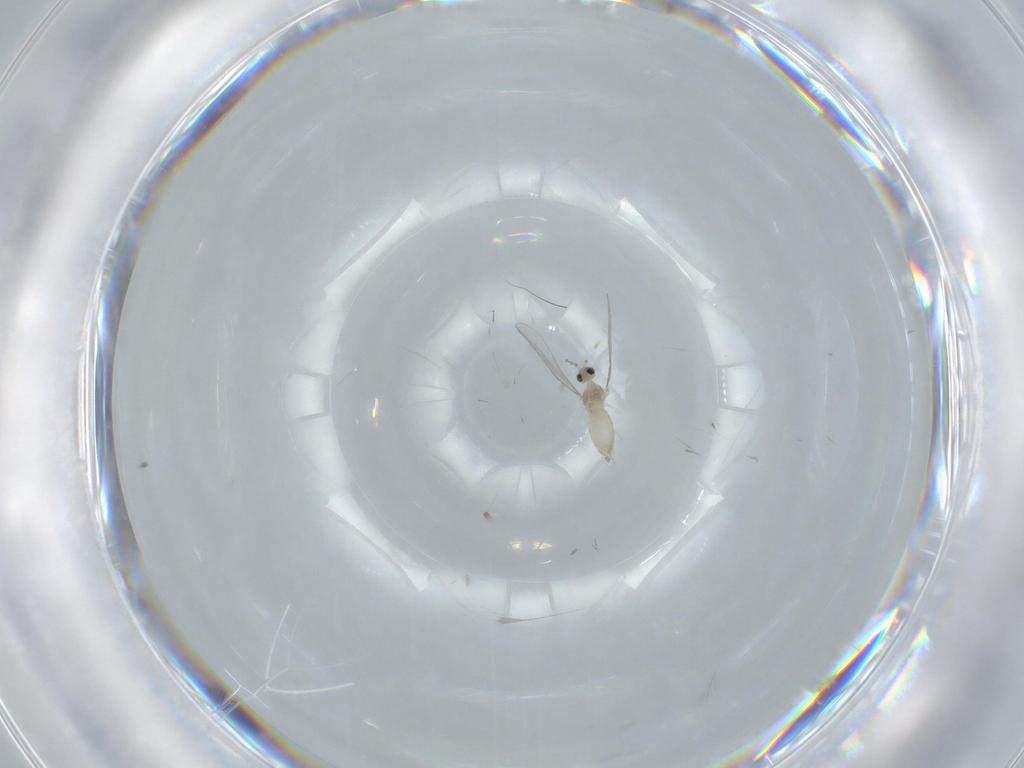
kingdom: Animalia
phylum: Arthropoda
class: Insecta
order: Diptera
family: Cecidomyiidae
